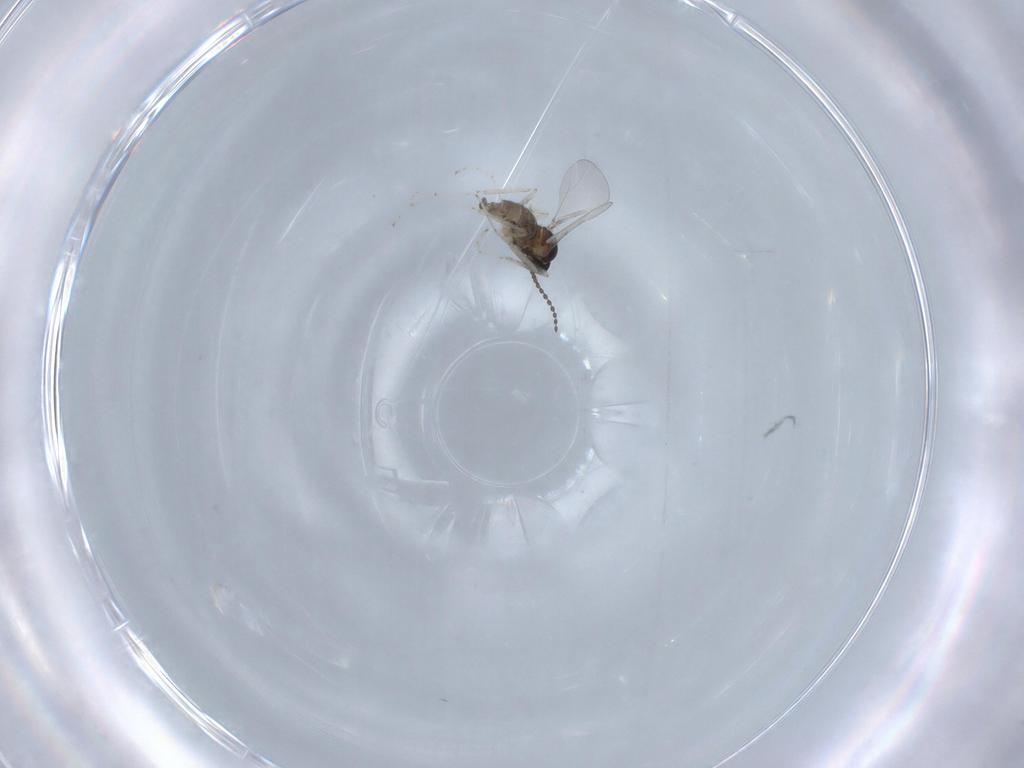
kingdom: Animalia
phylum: Arthropoda
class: Insecta
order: Diptera
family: Cecidomyiidae
